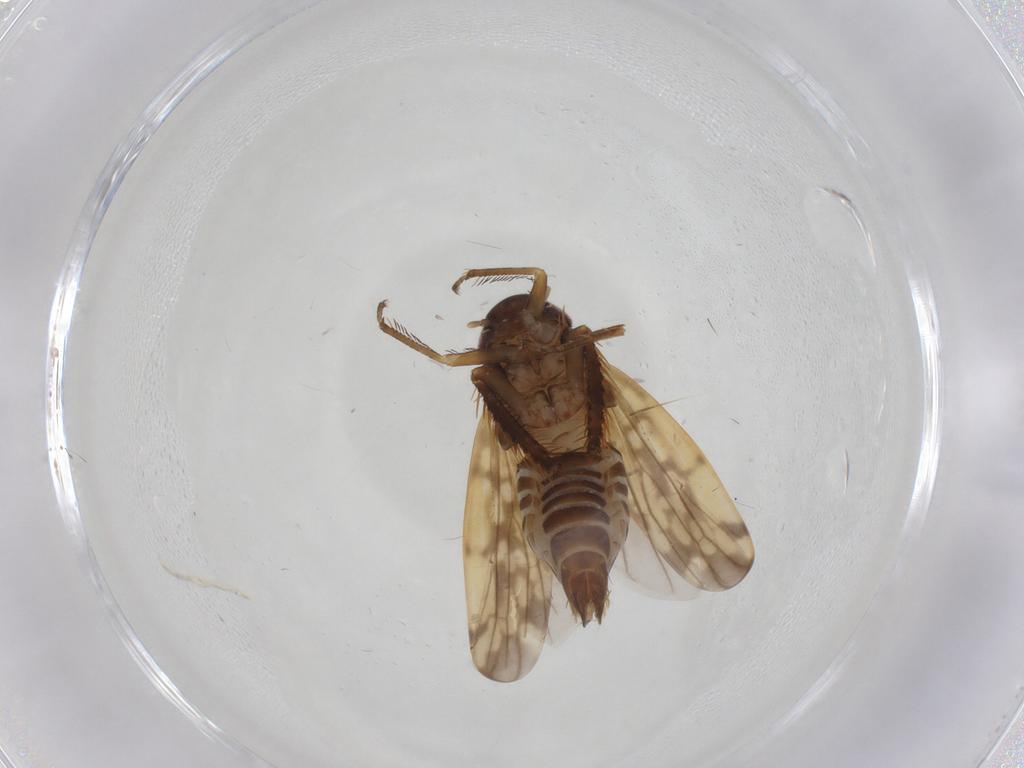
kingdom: Animalia
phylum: Arthropoda
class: Insecta
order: Hemiptera
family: Cicadellidae
